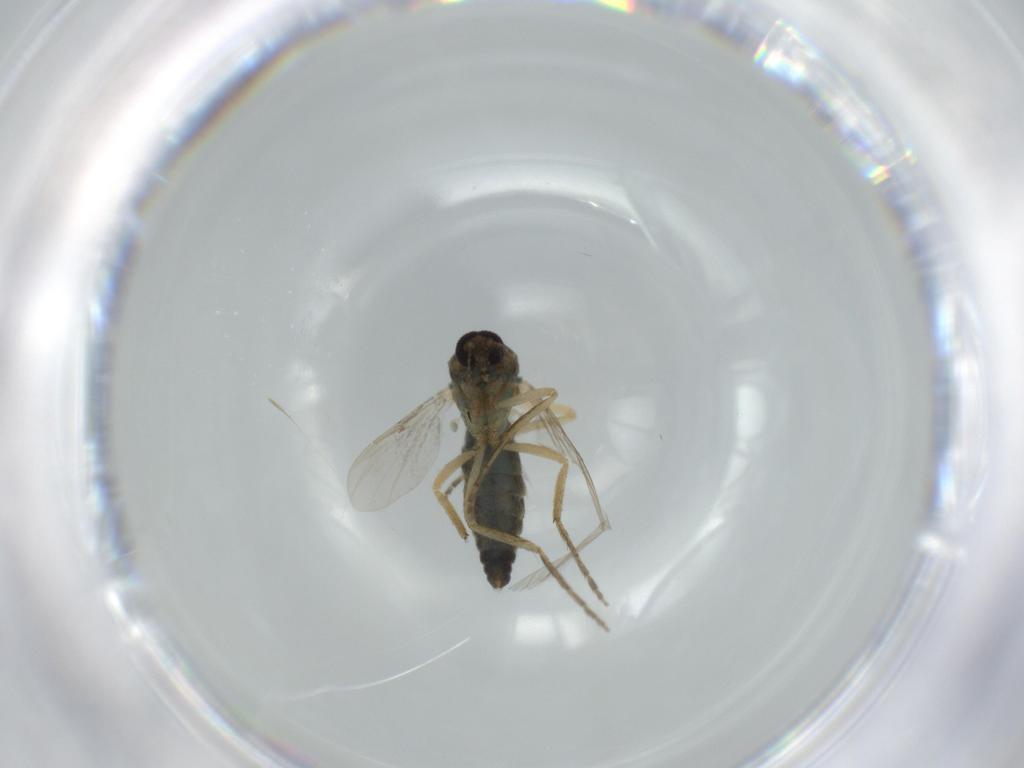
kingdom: Animalia
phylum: Arthropoda
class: Insecta
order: Diptera
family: Ceratopogonidae
